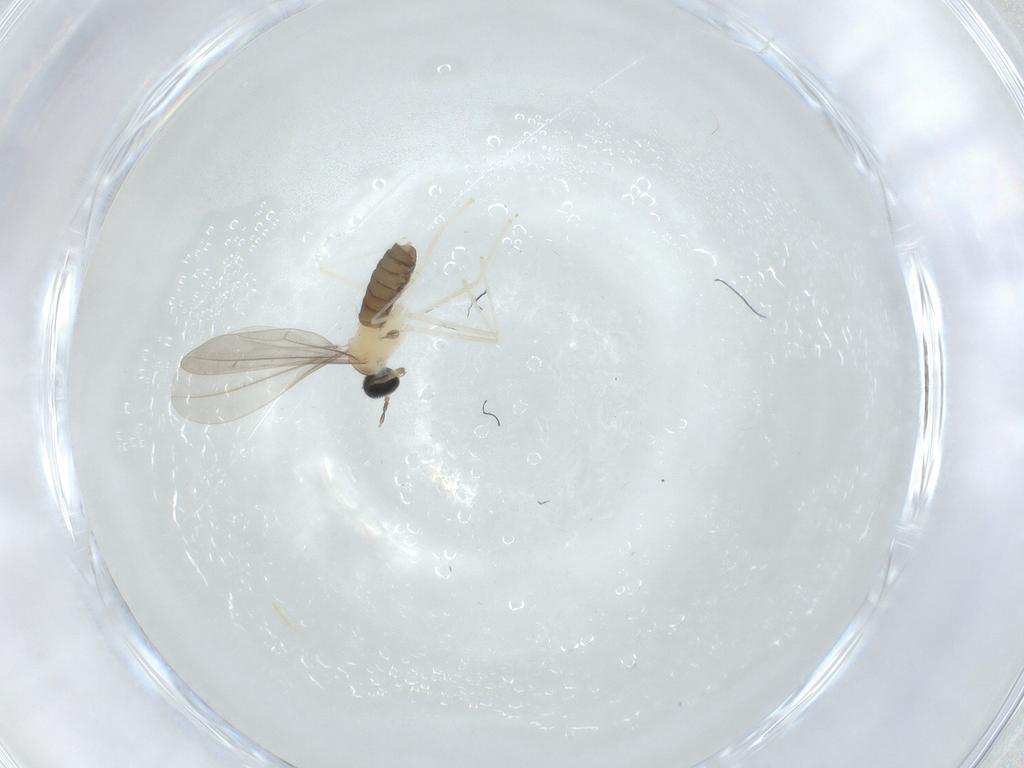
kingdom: Animalia
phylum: Arthropoda
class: Insecta
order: Diptera
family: Cecidomyiidae
